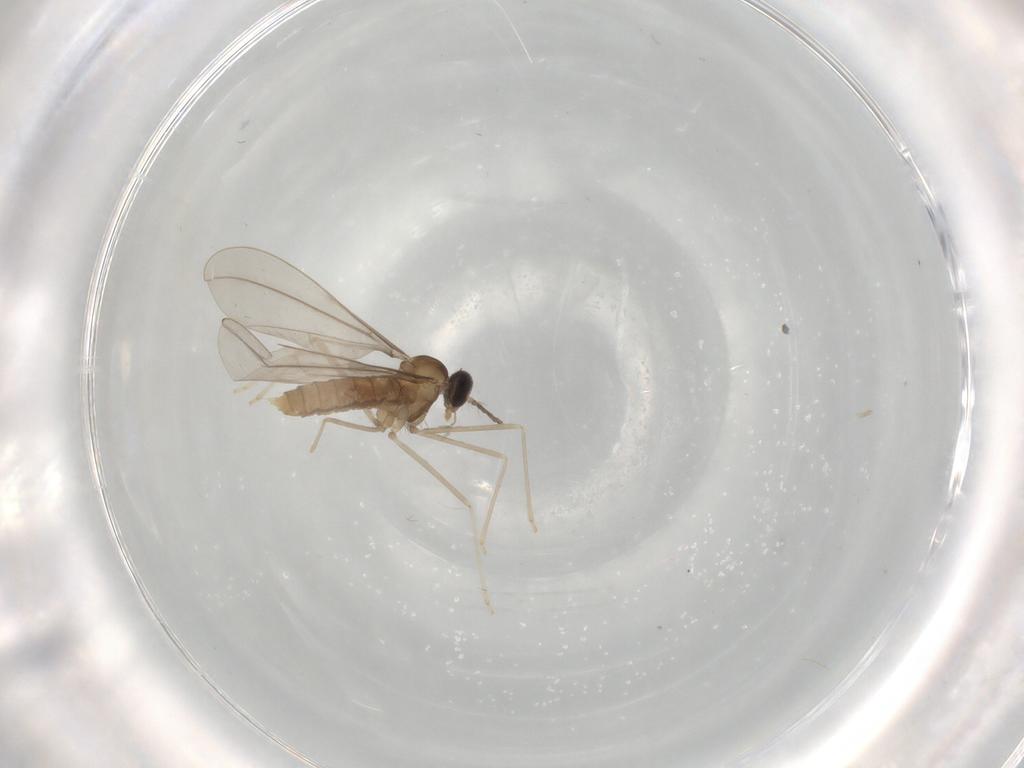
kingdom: Animalia
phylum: Arthropoda
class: Insecta
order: Diptera
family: Cecidomyiidae
